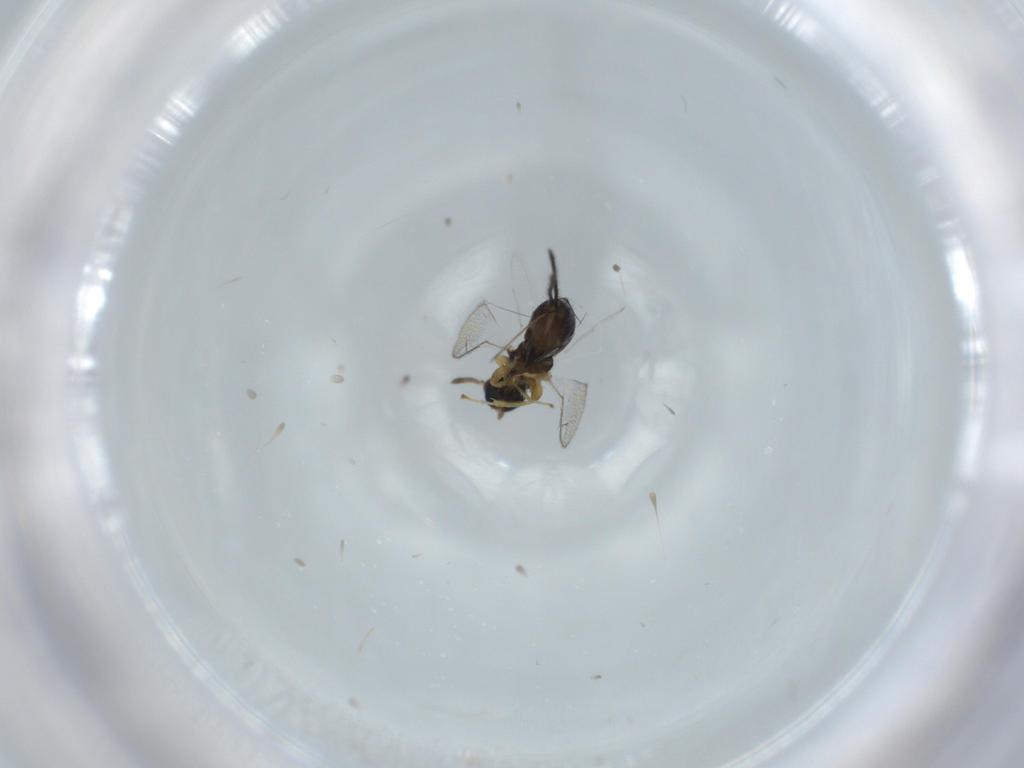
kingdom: Animalia
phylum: Arthropoda
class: Insecta
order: Hymenoptera
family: Torymidae
